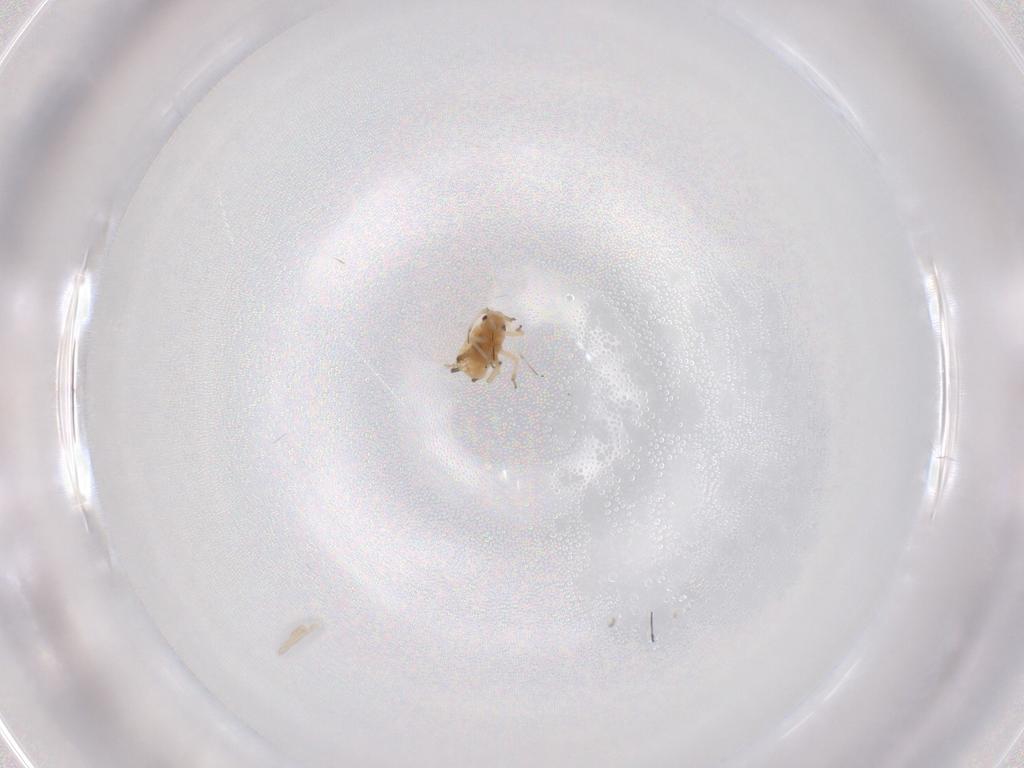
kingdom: Animalia
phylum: Arthropoda
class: Insecta
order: Hemiptera
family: Aphididae
